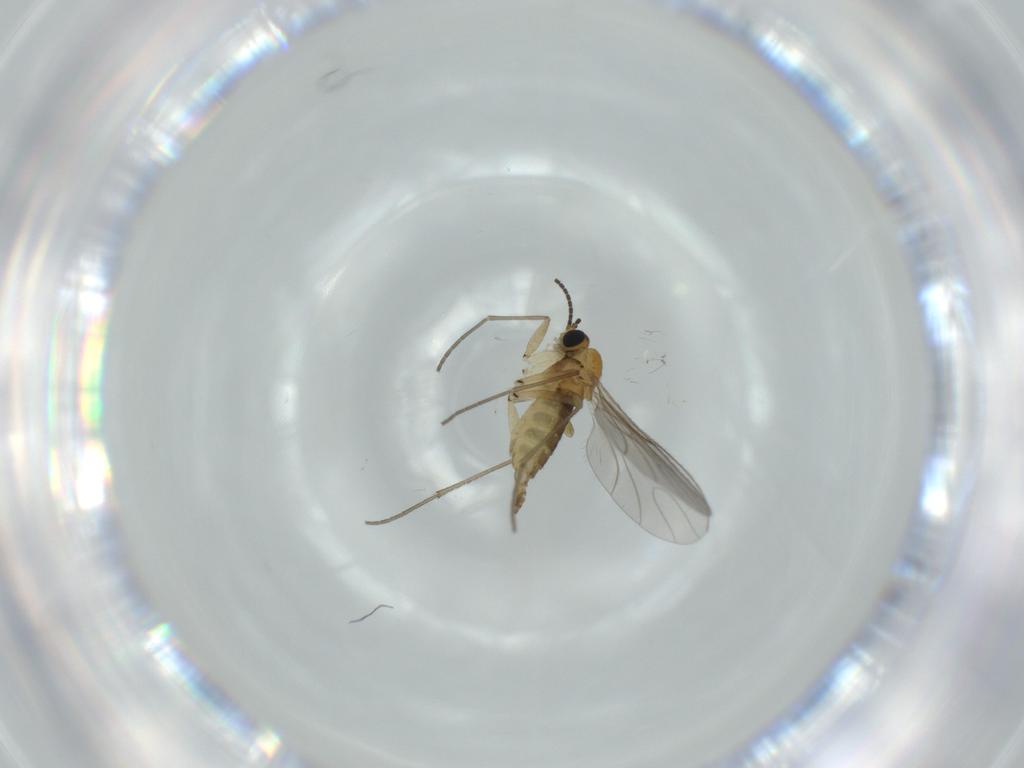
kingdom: Animalia
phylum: Arthropoda
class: Insecta
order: Diptera
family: Sciaridae
